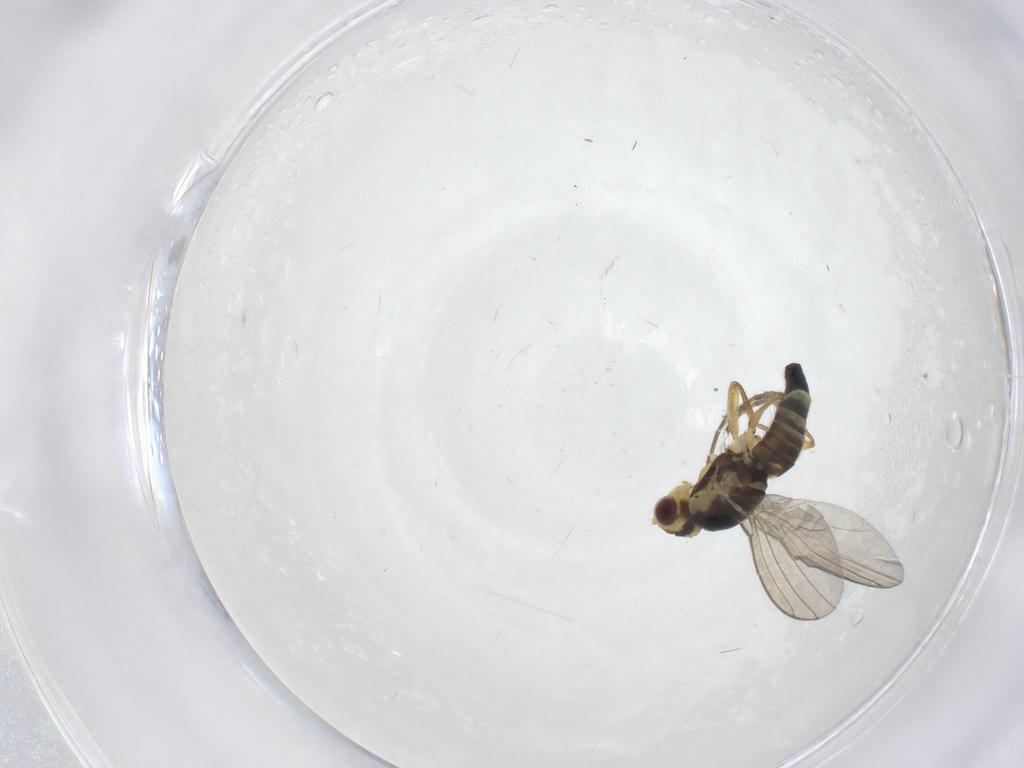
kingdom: Animalia
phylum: Arthropoda
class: Insecta
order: Diptera
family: Agromyzidae
